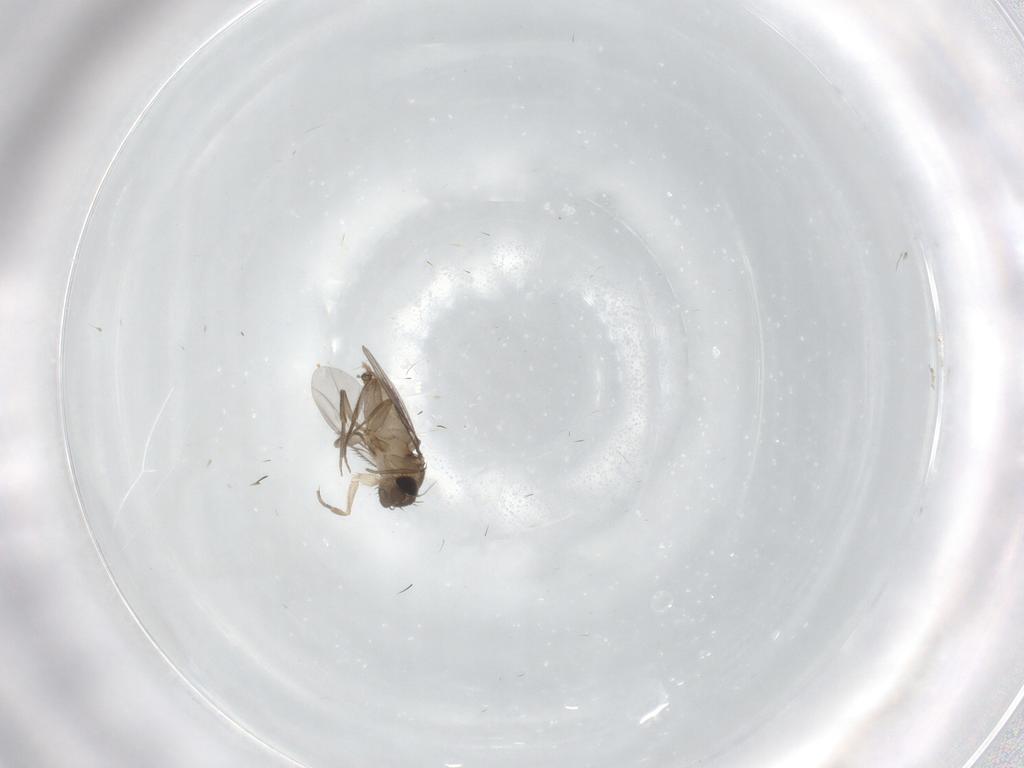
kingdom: Animalia
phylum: Arthropoda
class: Insecta
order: Diptera
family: Phoridae
